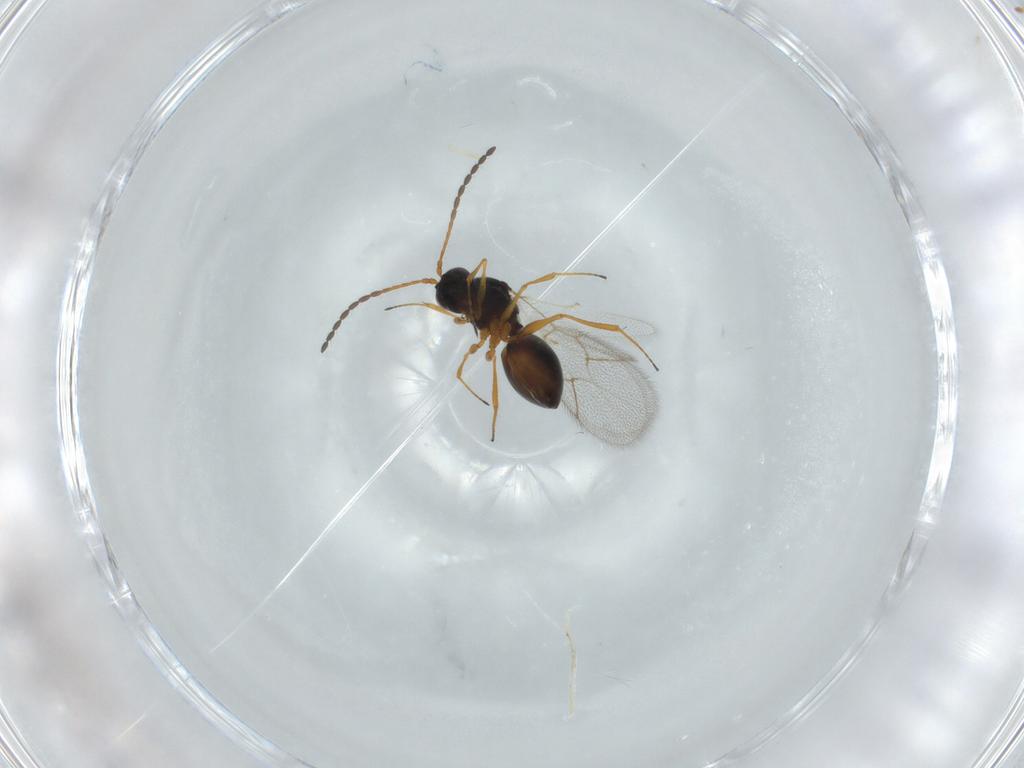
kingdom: Animalia
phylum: Arthropoda
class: Insecta
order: Hymenoptera
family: Figitidae
